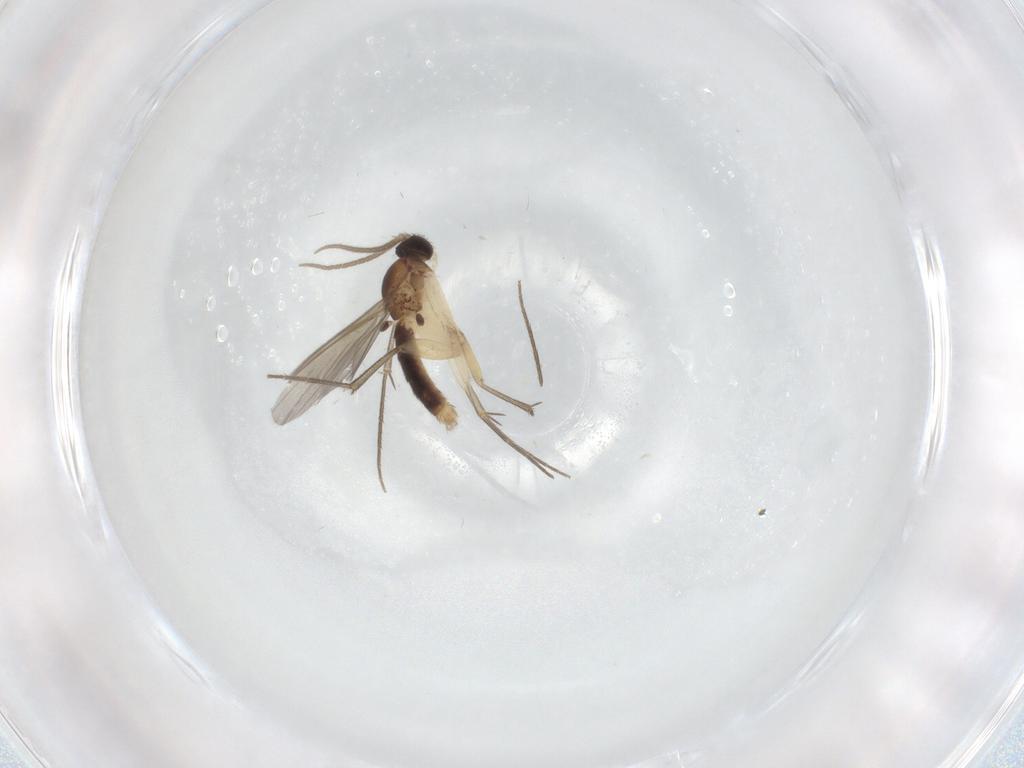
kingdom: Animalia
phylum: Arthropoda
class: Insecta
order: Diptera
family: Mycetophilidae
